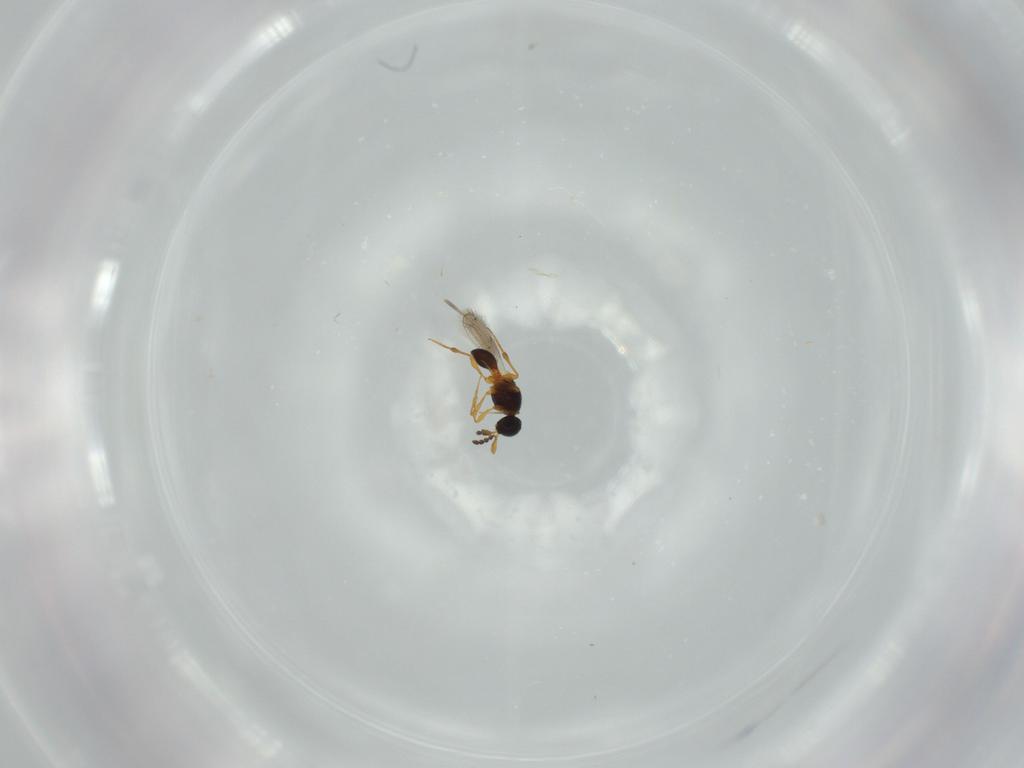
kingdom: Animalia
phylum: Arthropoda
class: Insecta
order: Hymenoptera
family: Platygastridae
